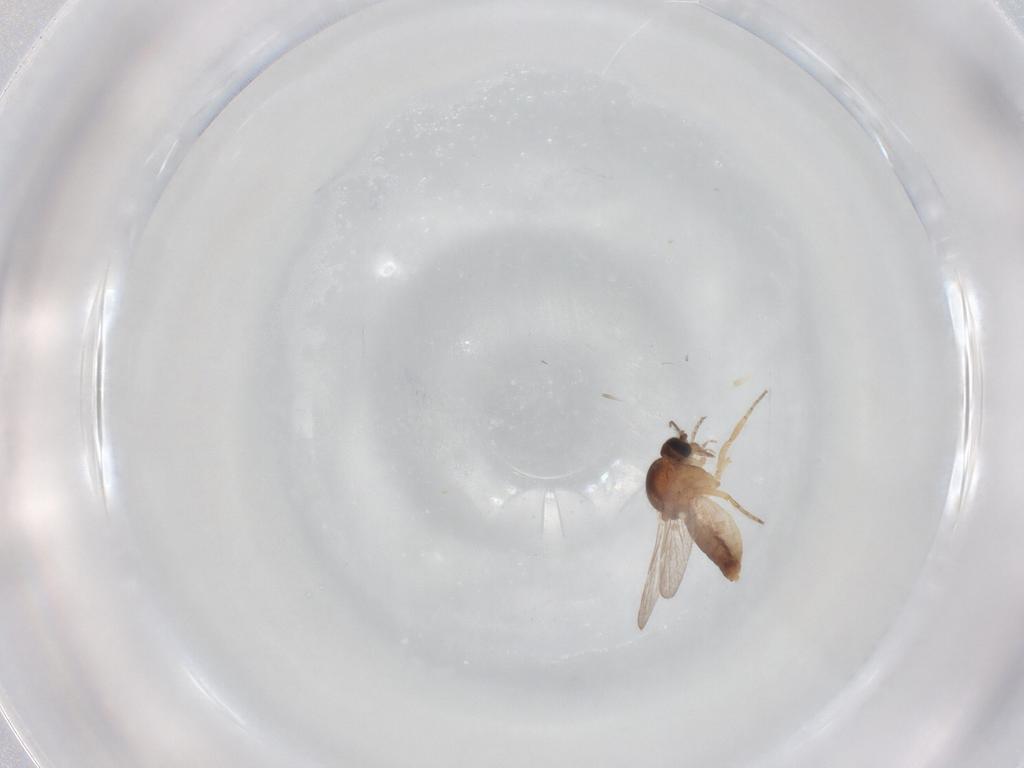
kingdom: Animalia
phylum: Arthropoda
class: Insecta
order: Diptera
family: Ceratopogonidae
